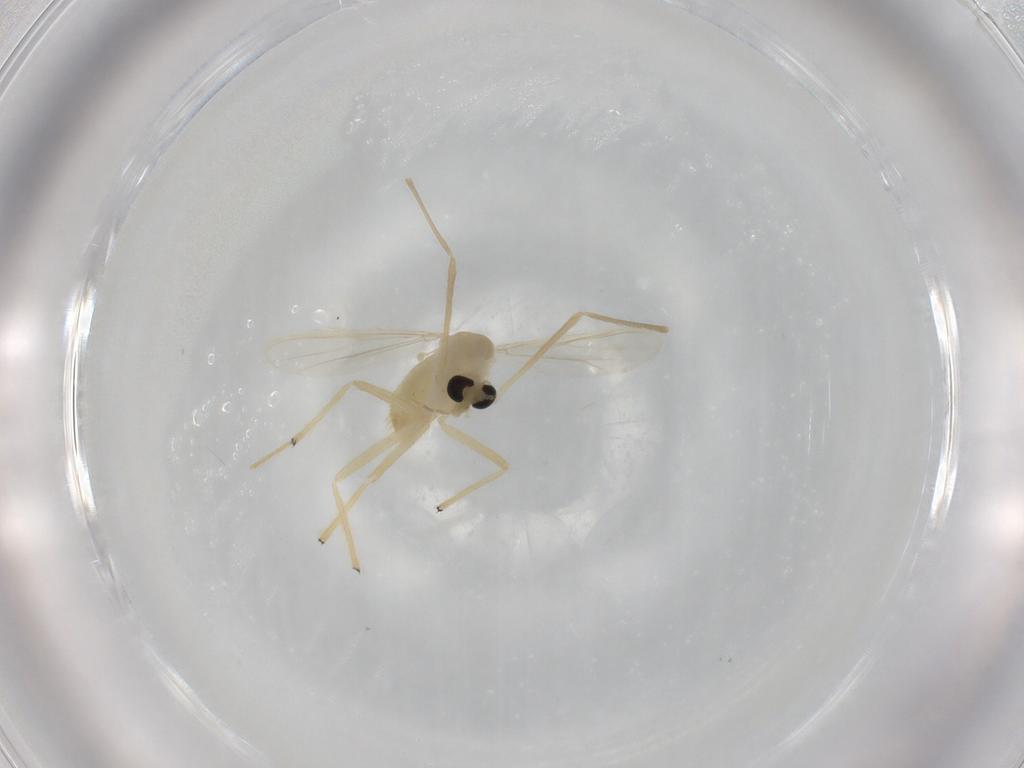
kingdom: Animalia
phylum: Arthropoda
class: Insecta
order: Diptera
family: Chironomidae
